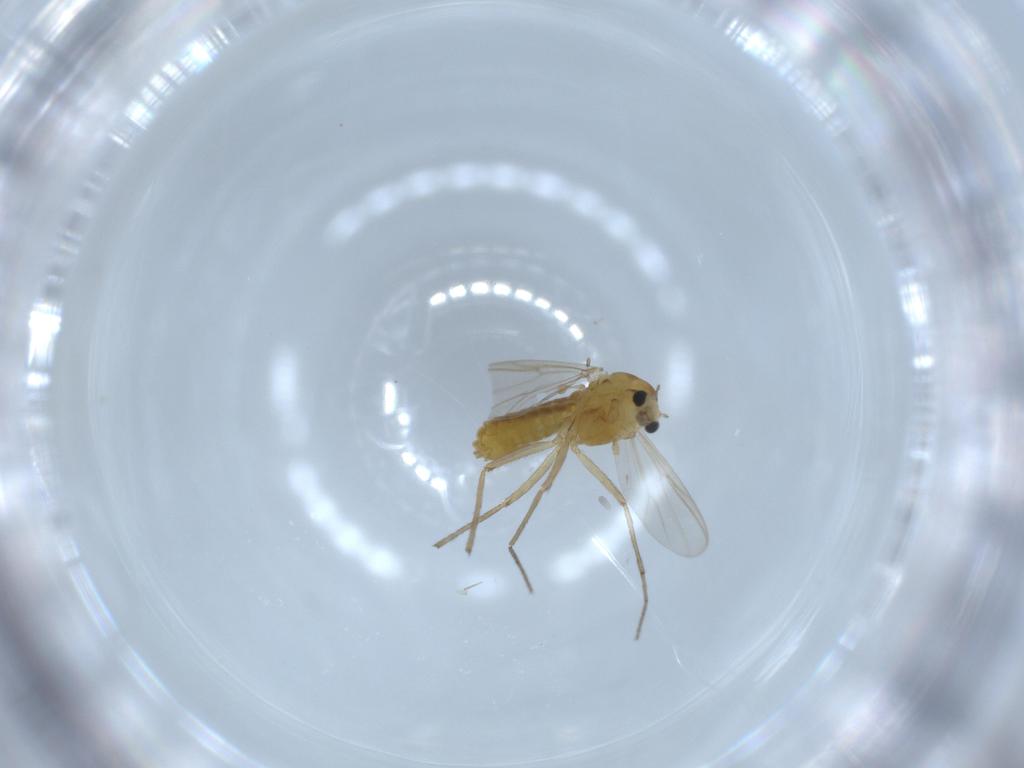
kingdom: Animalia
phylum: Arthropoda
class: Insecta
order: Diptera
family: Chironomidae
